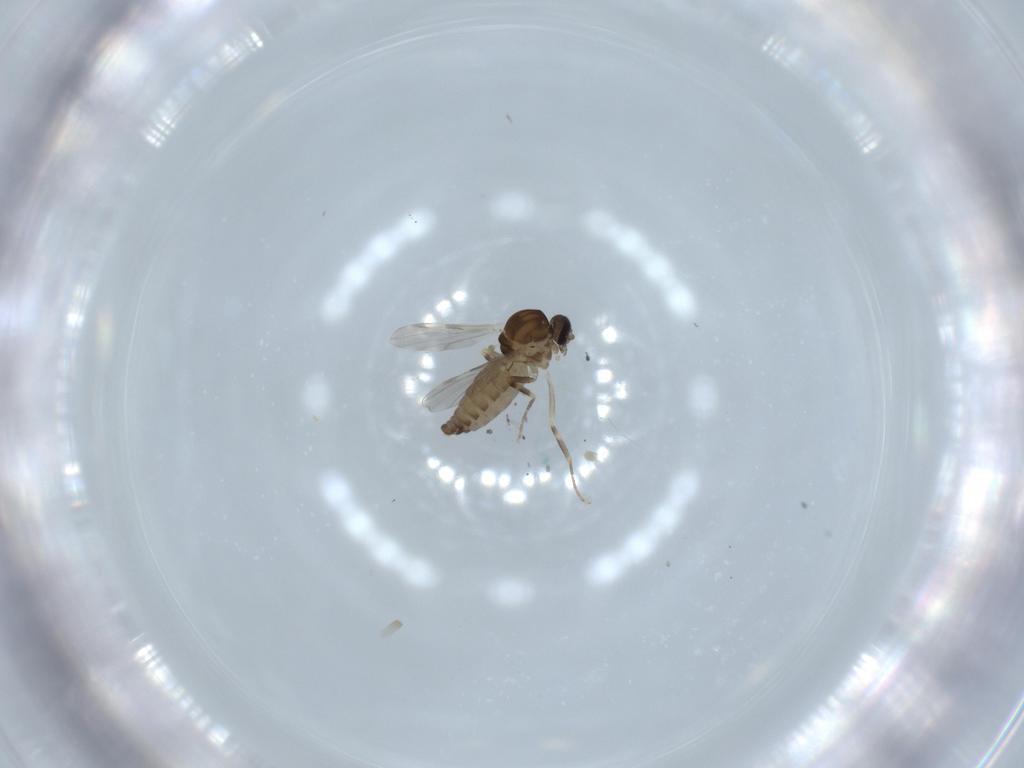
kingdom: Animalia
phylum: Arthropoda
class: Insecta
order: Diptera
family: Ceratopogonidae
